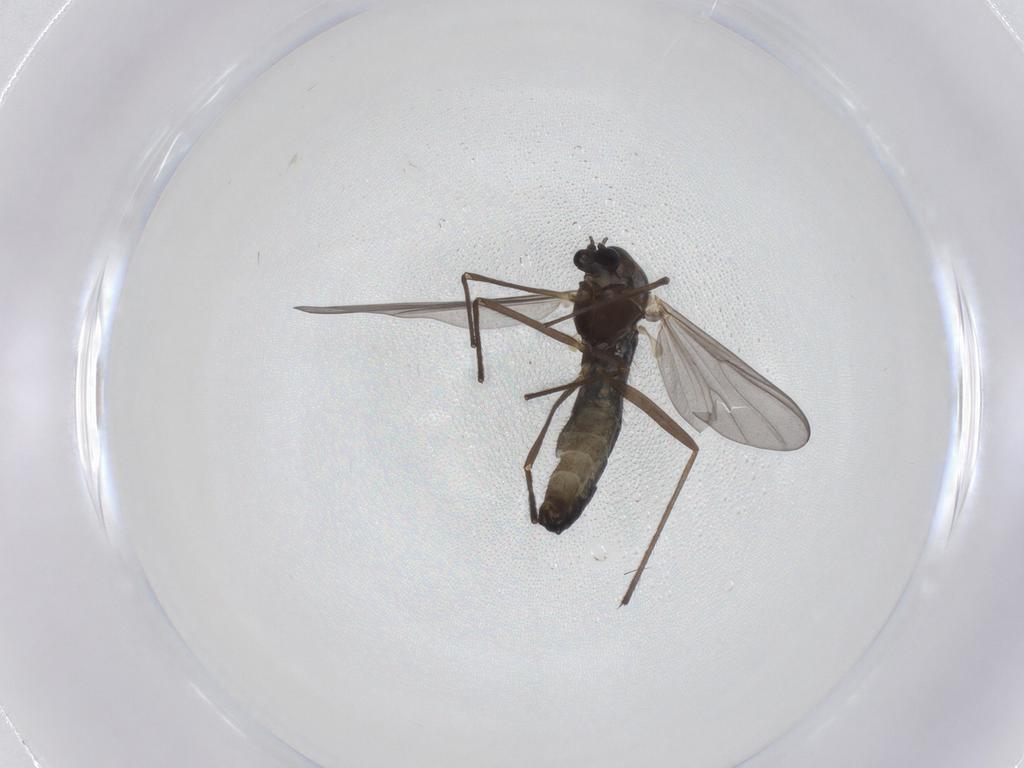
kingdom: Animalia
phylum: Arthropoda
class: Insecta
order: Diptera
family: Chironomidae
